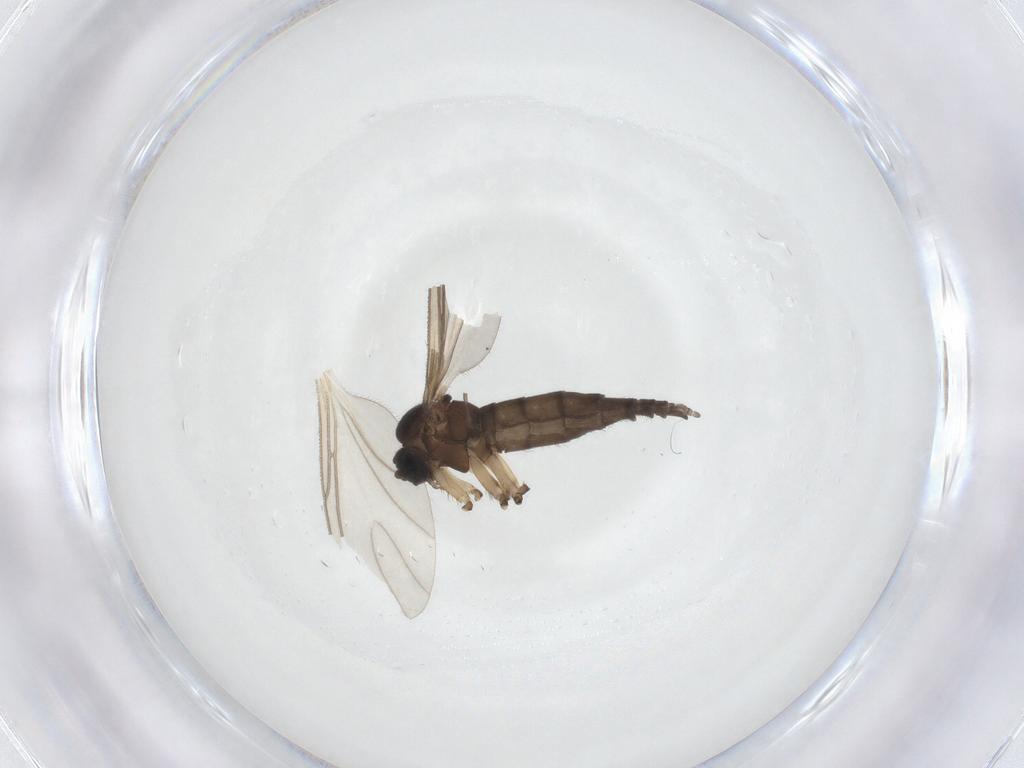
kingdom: Animalia
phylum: Arthropoda
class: Insecta
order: Diptera
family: Sciaridae
